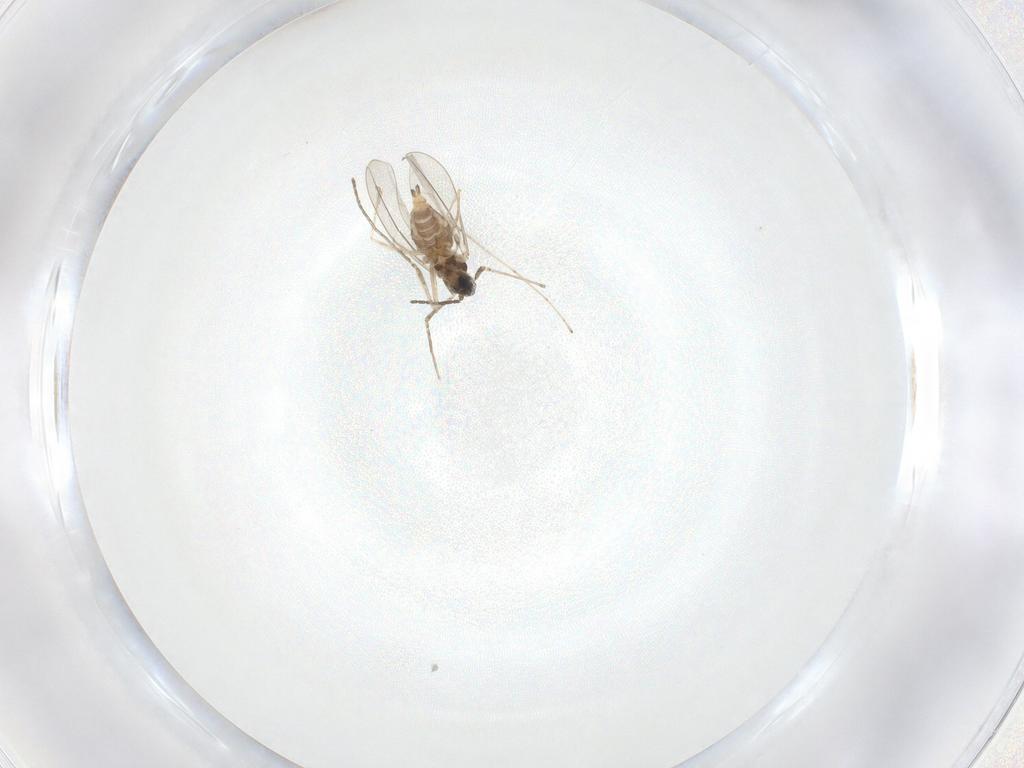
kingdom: Animalia
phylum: Arthropoda
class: Insecta
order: Diptera
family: Cecidomyiidae
